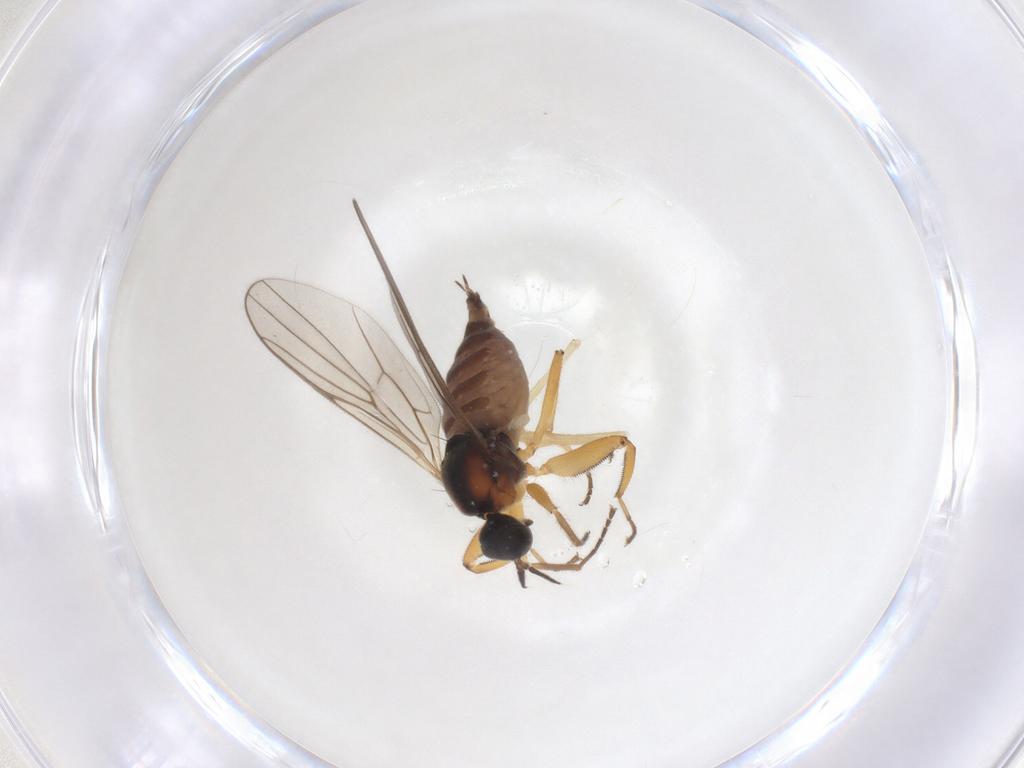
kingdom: Animalia
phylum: Arthropoda
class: Insecta
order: Diptera
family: Hybotidae
